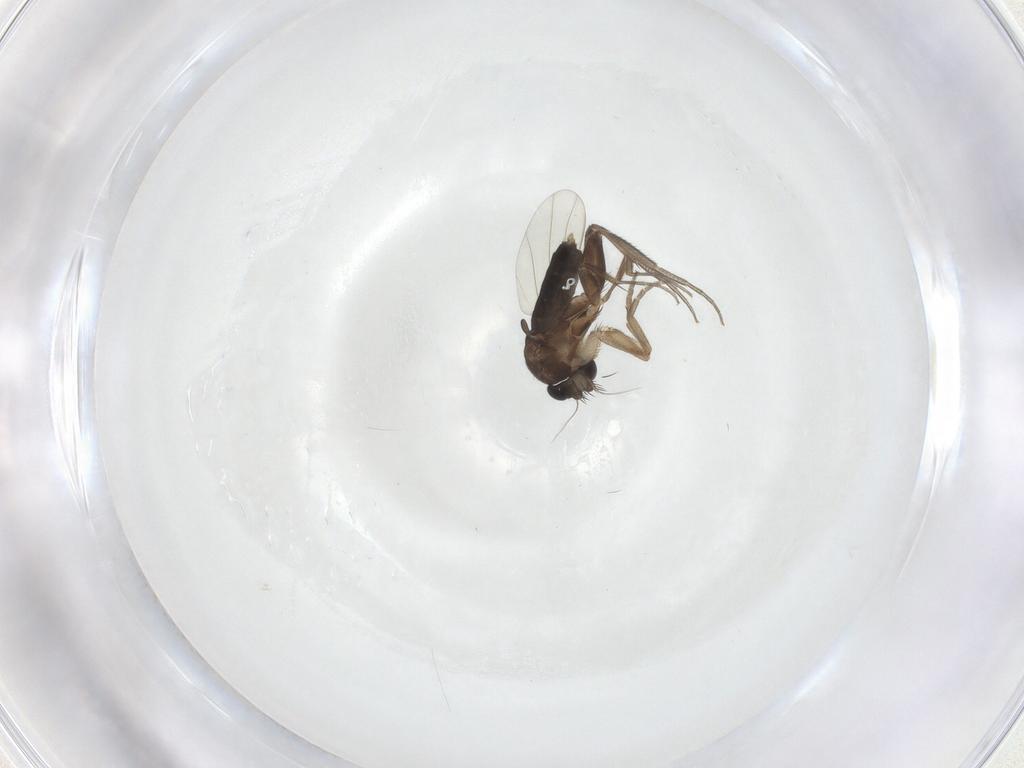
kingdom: Animalia
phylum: Arthropoda
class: Insecta
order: Diptera
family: Phoridae
